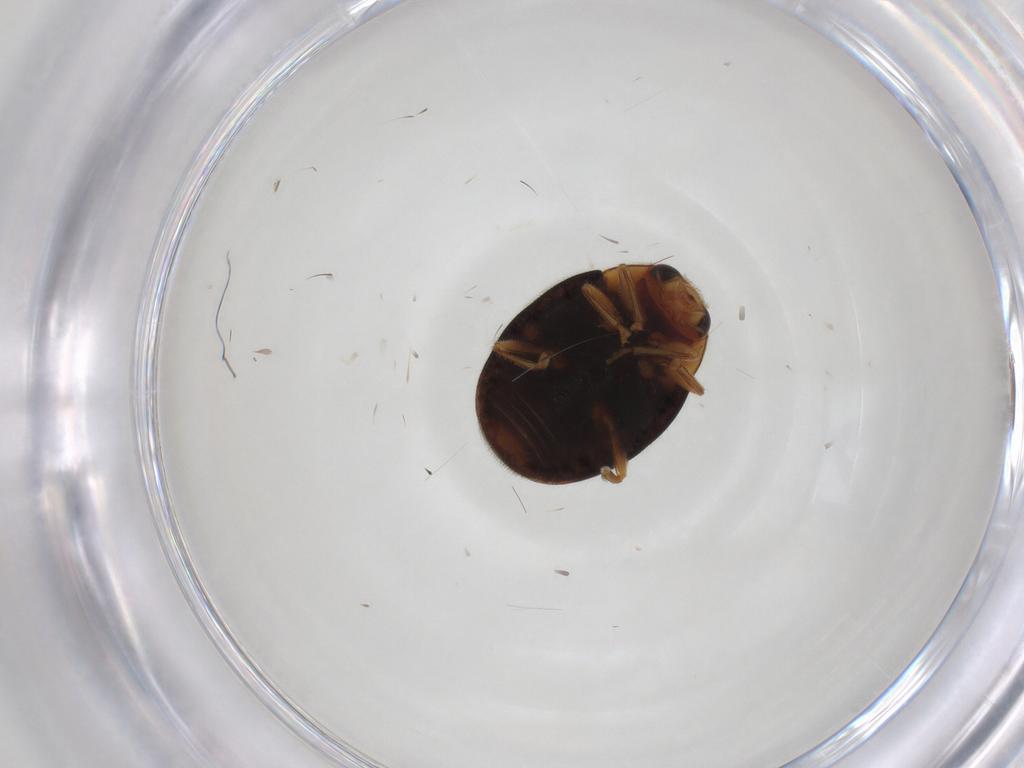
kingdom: Animalia
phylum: Arthropoda
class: Insecta
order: Coleoptera
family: Coccinellidae
